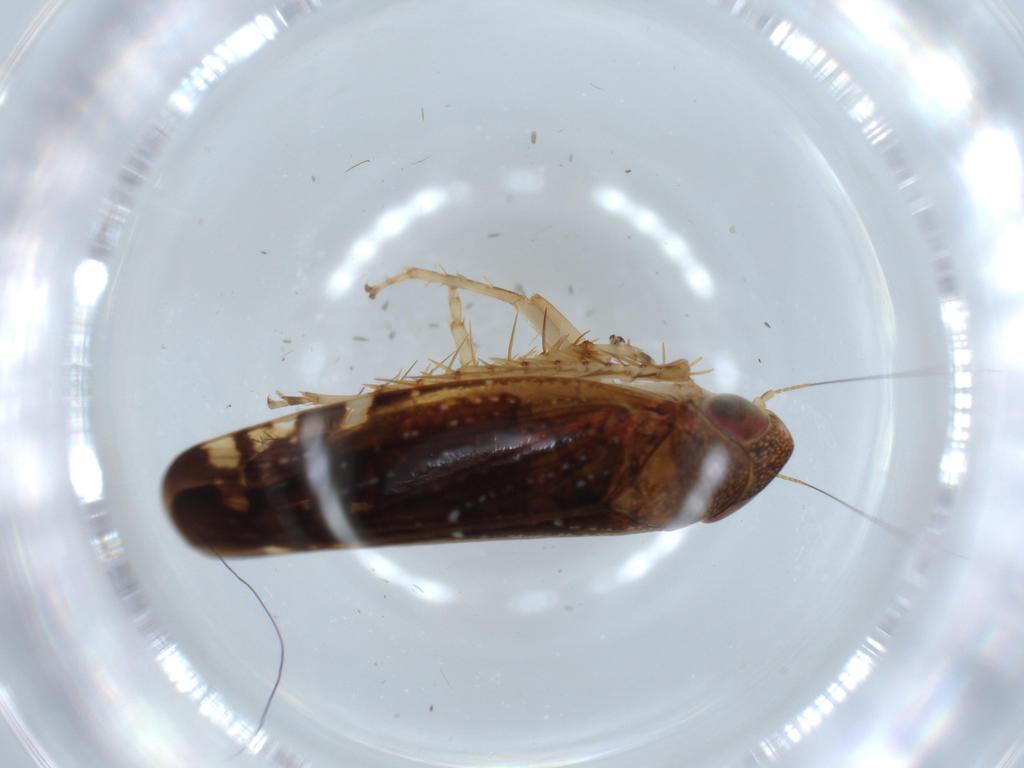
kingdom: Animalia
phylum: Arthropoda
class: Insecta
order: Hemiptera
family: Cicadellidae
